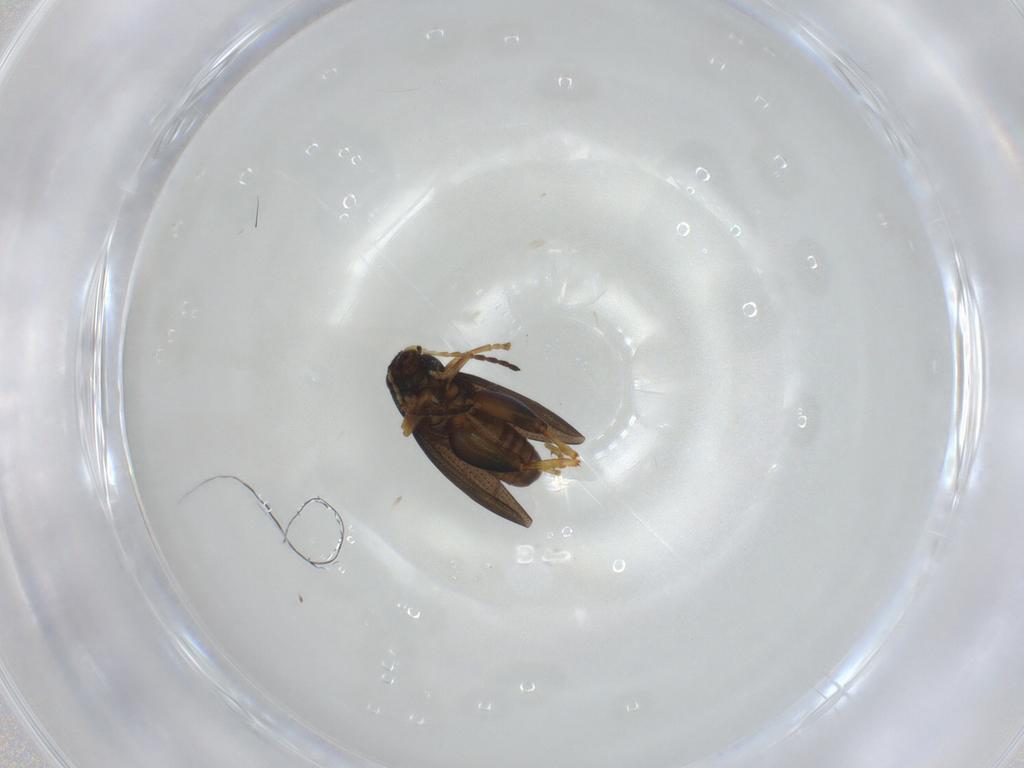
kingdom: Animalia
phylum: Arthropoda
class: Insecta
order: Coleoptera
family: Chrysomelidae
